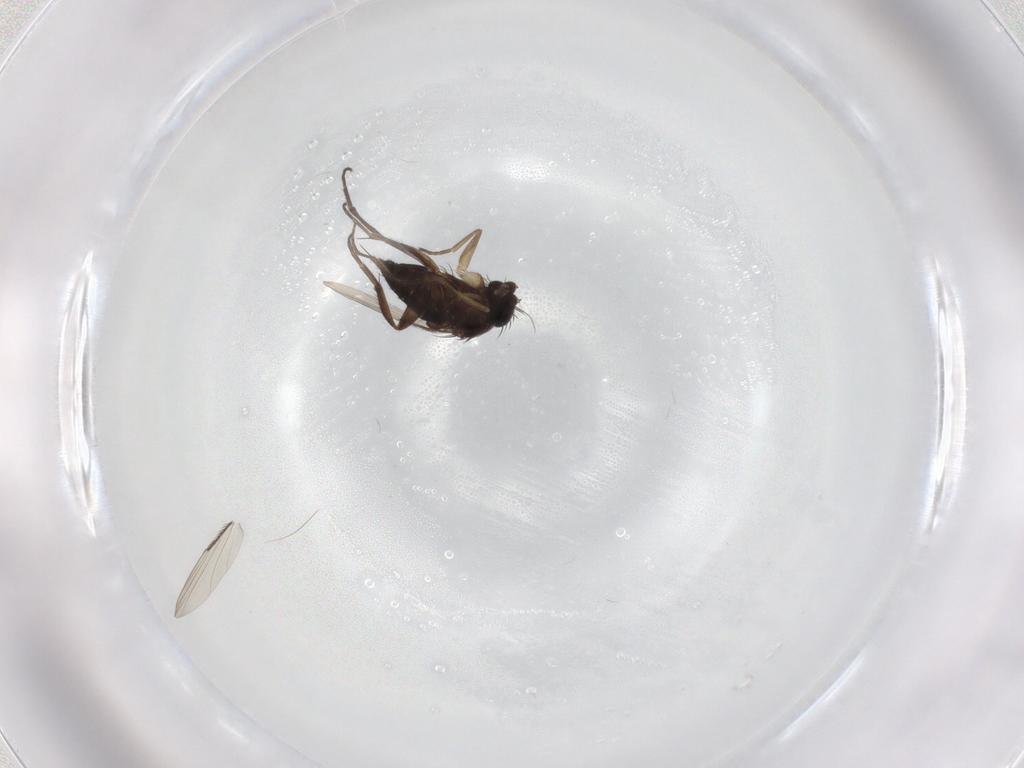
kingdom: Animalia
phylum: Arthropoda
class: Insecta
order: Diptera
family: Phoridae
